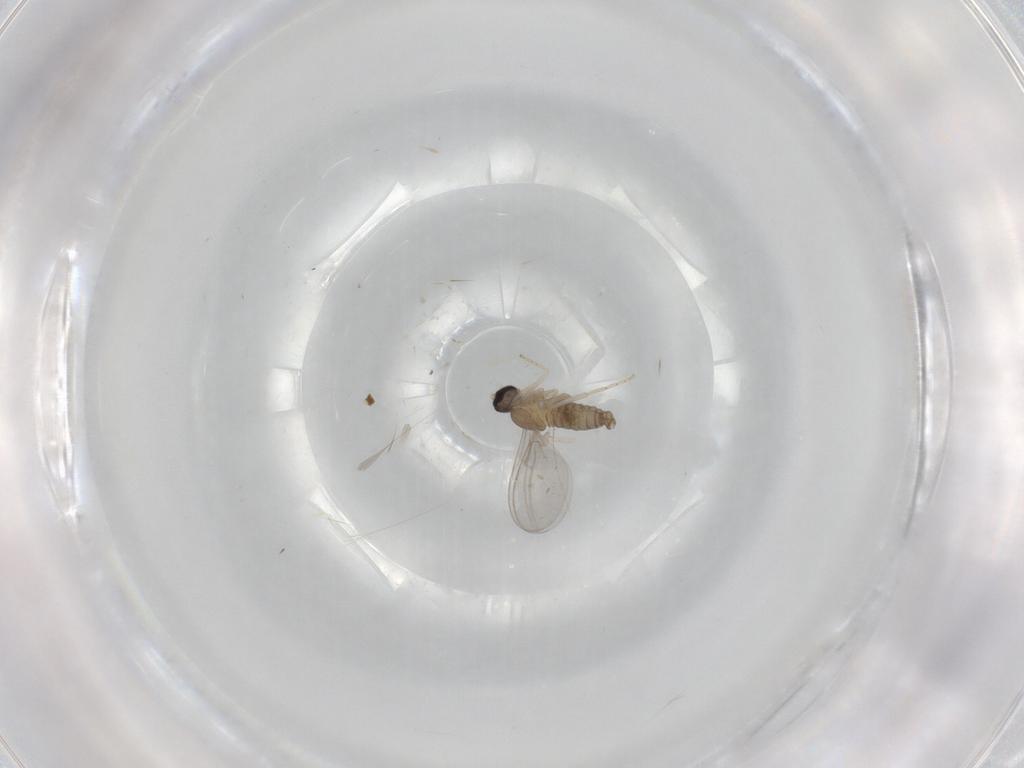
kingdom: Animalia
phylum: Arthropoda
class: Insecta
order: Diptera
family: Cecidomyiidae
